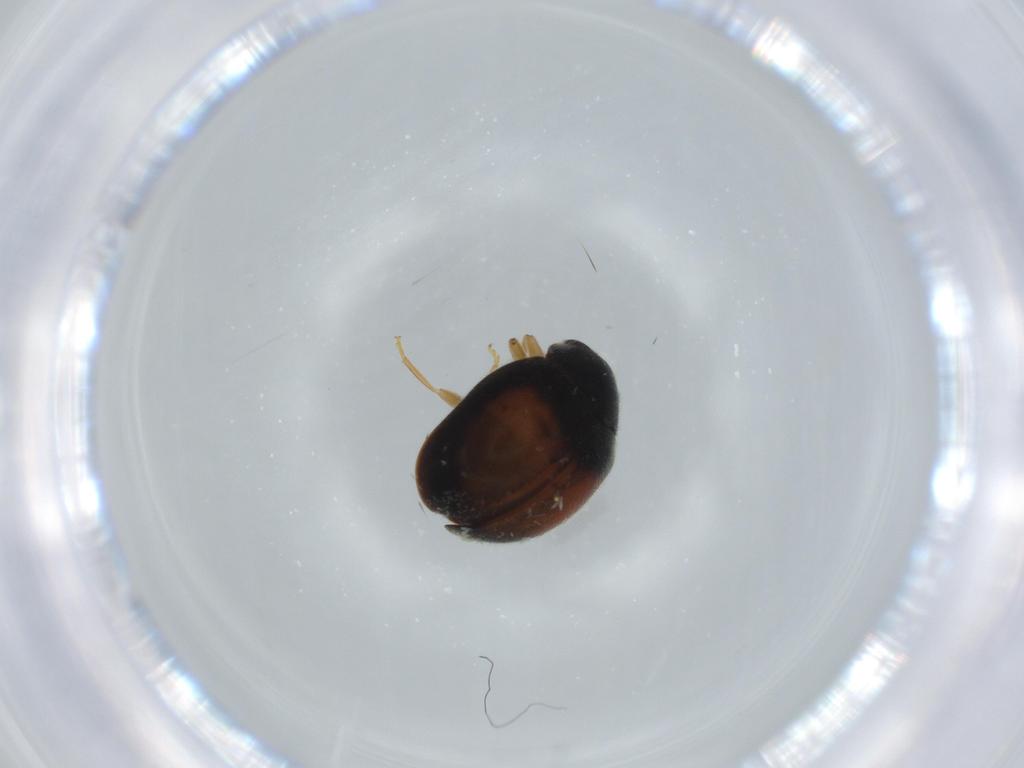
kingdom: Animalia
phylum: Arthropoda
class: Insecta
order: Coleoptera
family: Coccinellidae
